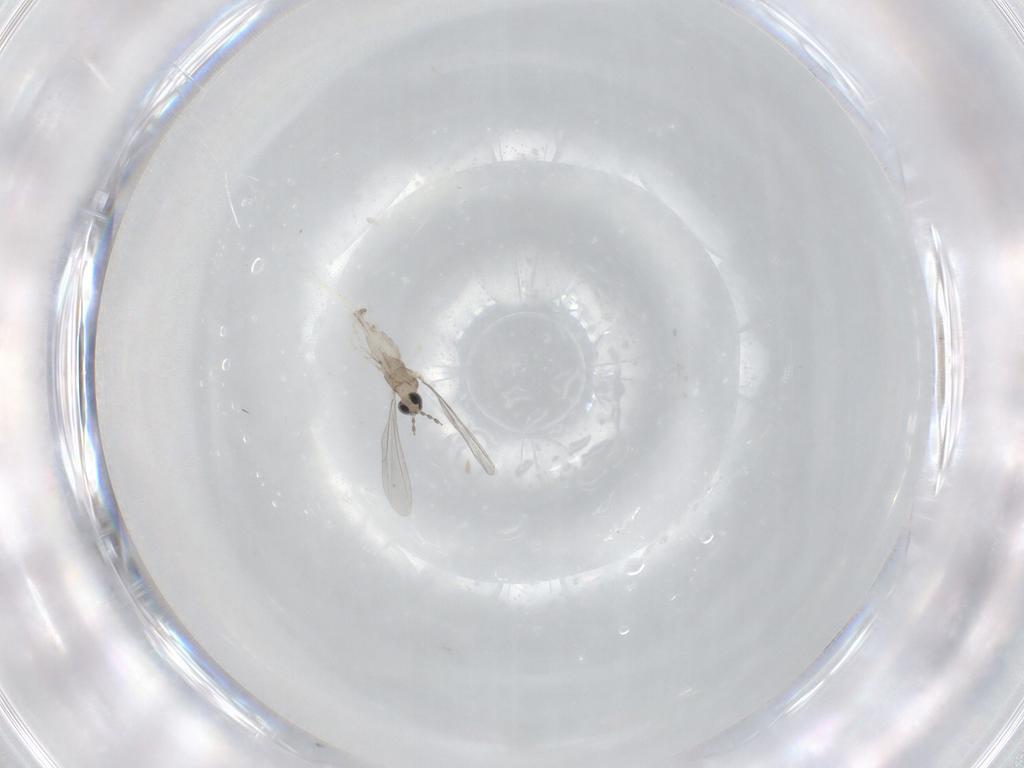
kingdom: Animalia
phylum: Arthropoda
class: Insecta
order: Diptera
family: Cecidomyiidae
